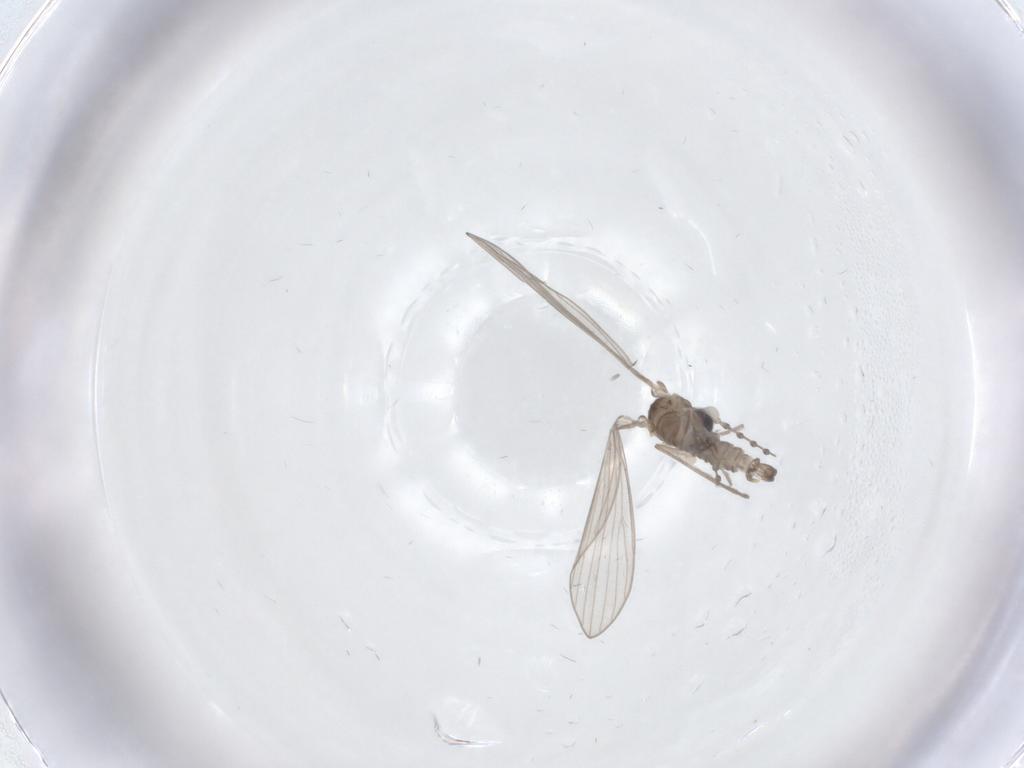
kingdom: Animalia
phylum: Arthropoda
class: Insecta
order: Diptera
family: Psychodidae
